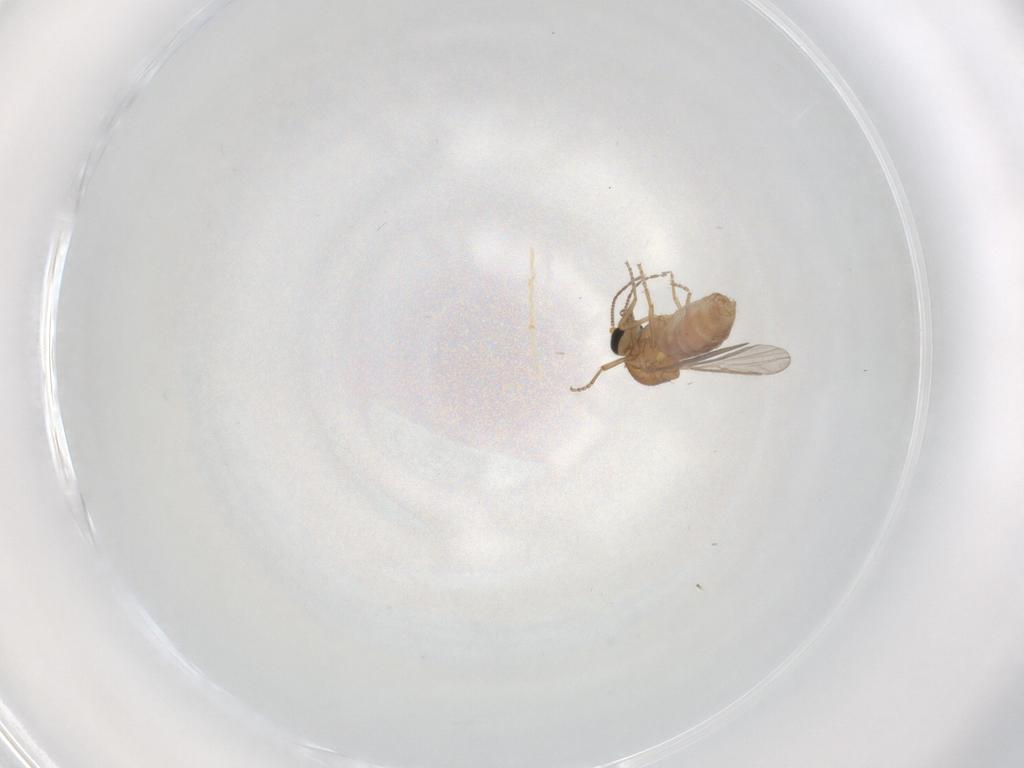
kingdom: Animalia
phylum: Arthropoda
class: Insecta
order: Diptera
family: Ceratopogonidae
